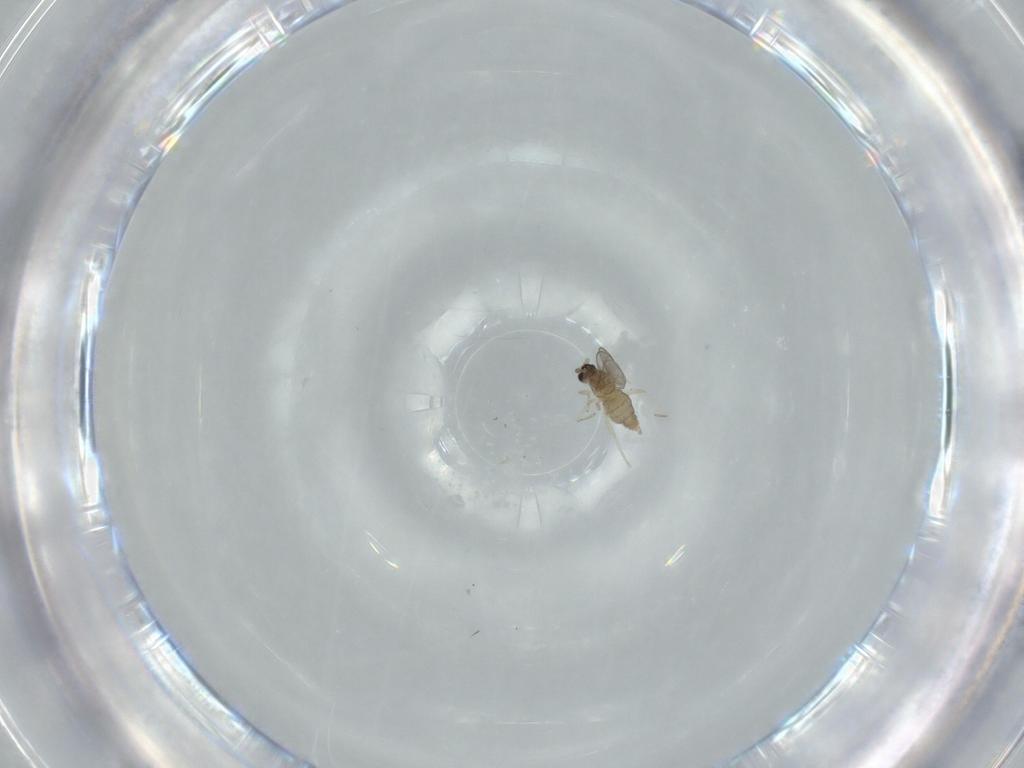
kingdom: Animalia
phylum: Arthropoda
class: Insecta
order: Diptera
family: Cecidomyiidae
